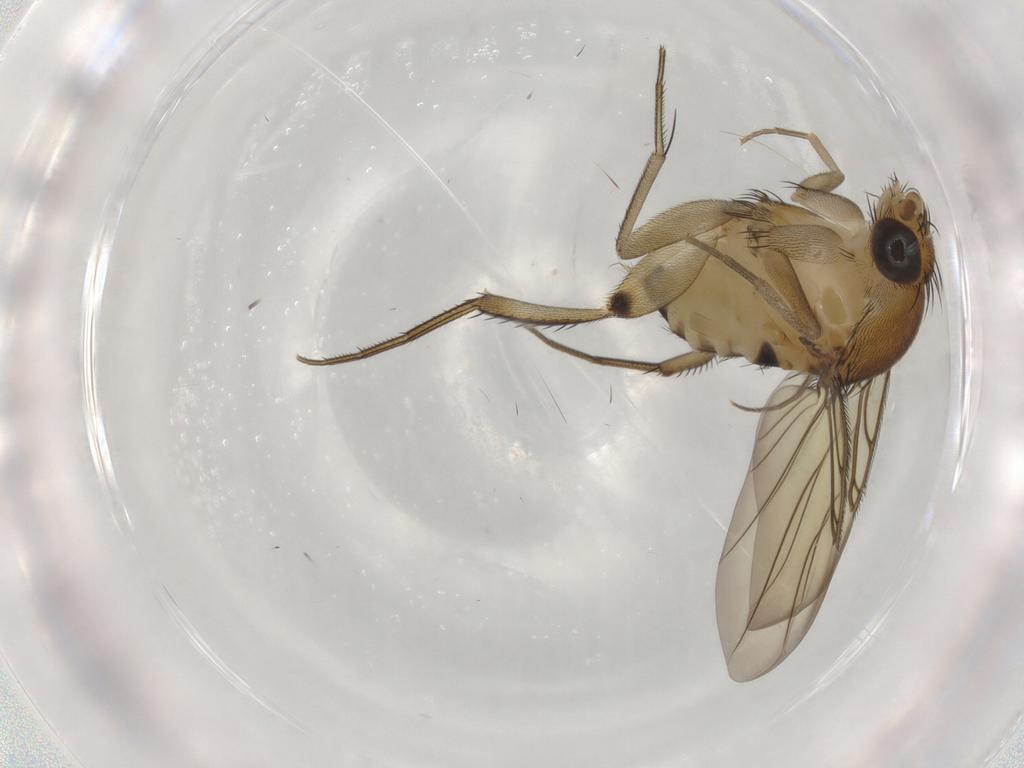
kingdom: Animalia
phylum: Arthropoda
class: Insecta
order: Diptera
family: Phoridae
